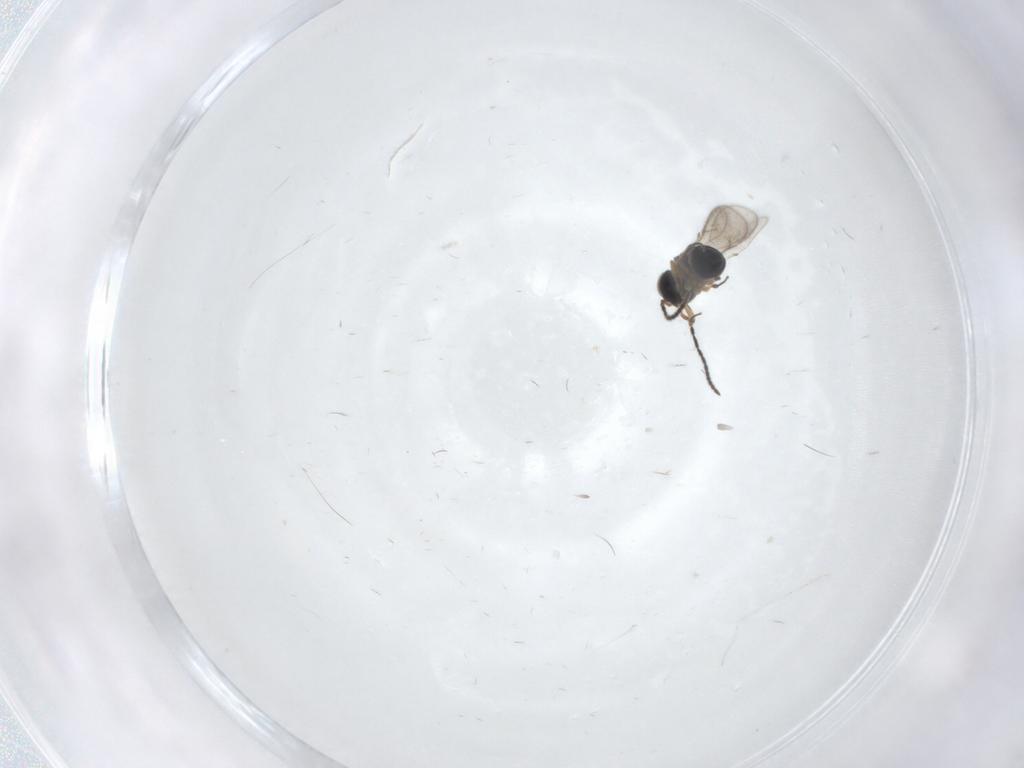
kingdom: Animalia
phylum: Arthropoda
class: Insecta
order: Hymenoptera
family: Scelionidae
